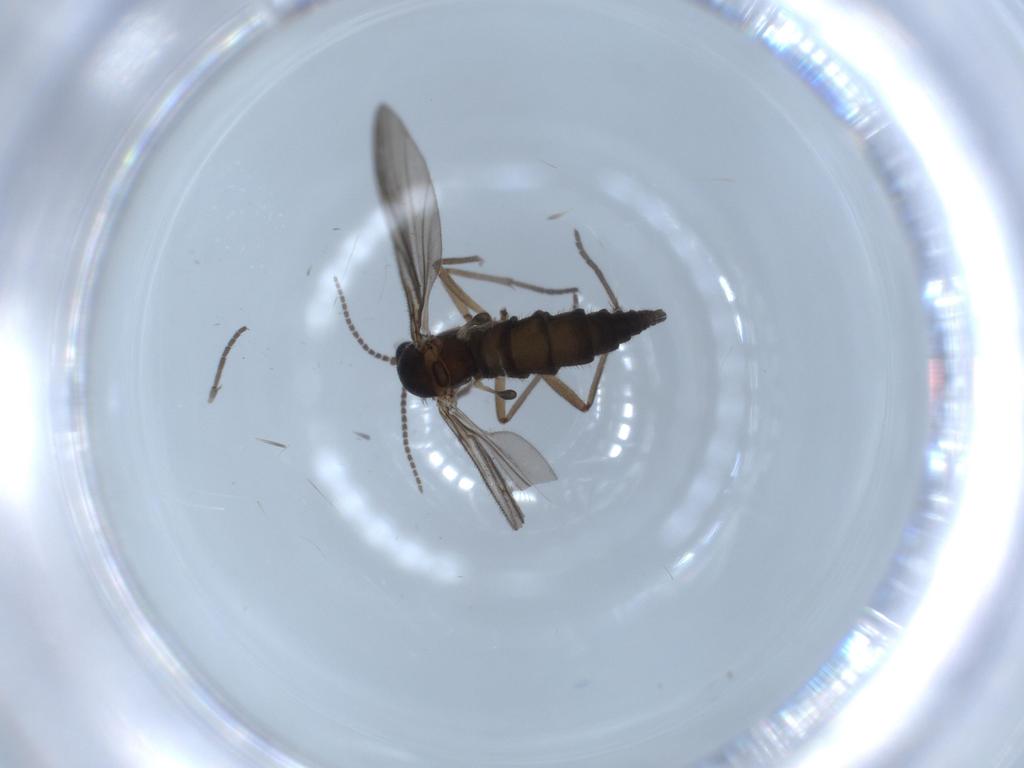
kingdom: Animalia
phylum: Arthropoda
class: Insecta
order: Diptera
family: Sciaridae
